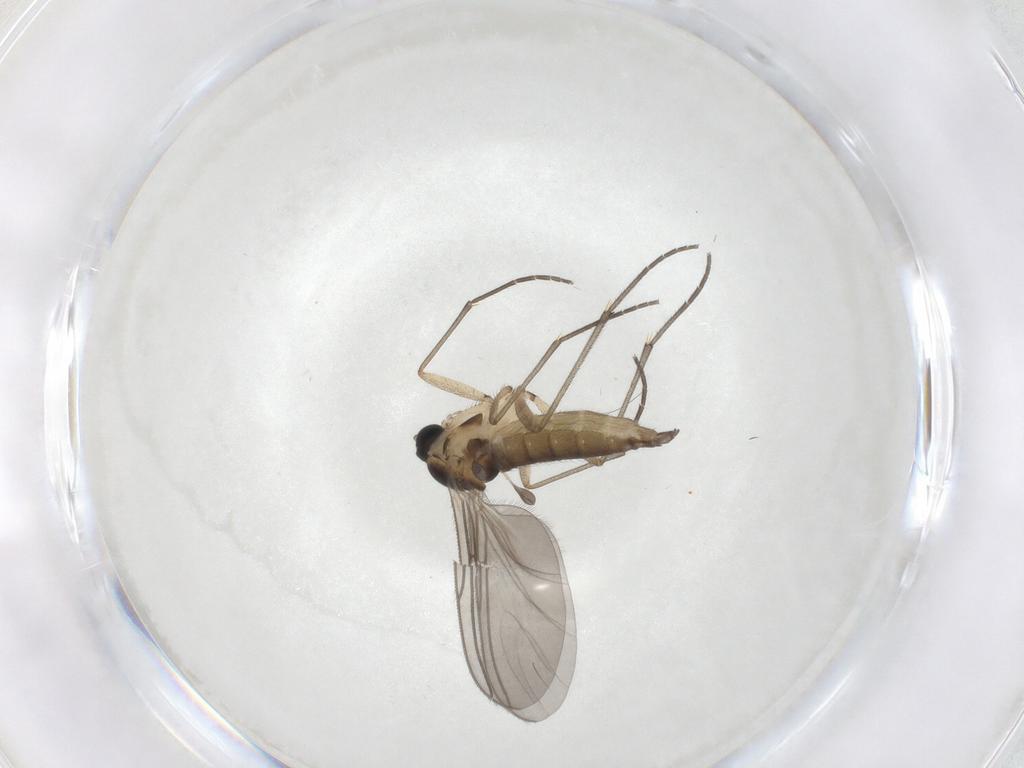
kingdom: Animalia
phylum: Arthropoda
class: Insecta
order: Diptera
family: Sciaridae
